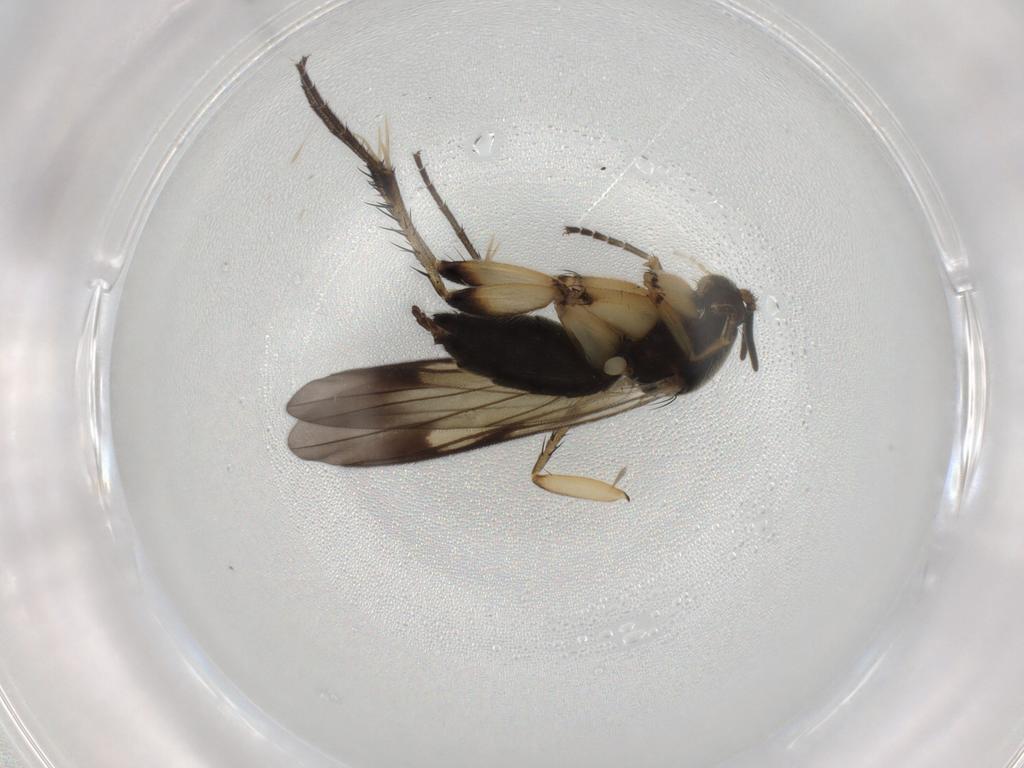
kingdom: Animalia
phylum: Arthropoda
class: Insecta
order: Diptera
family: Mycetophilidae
